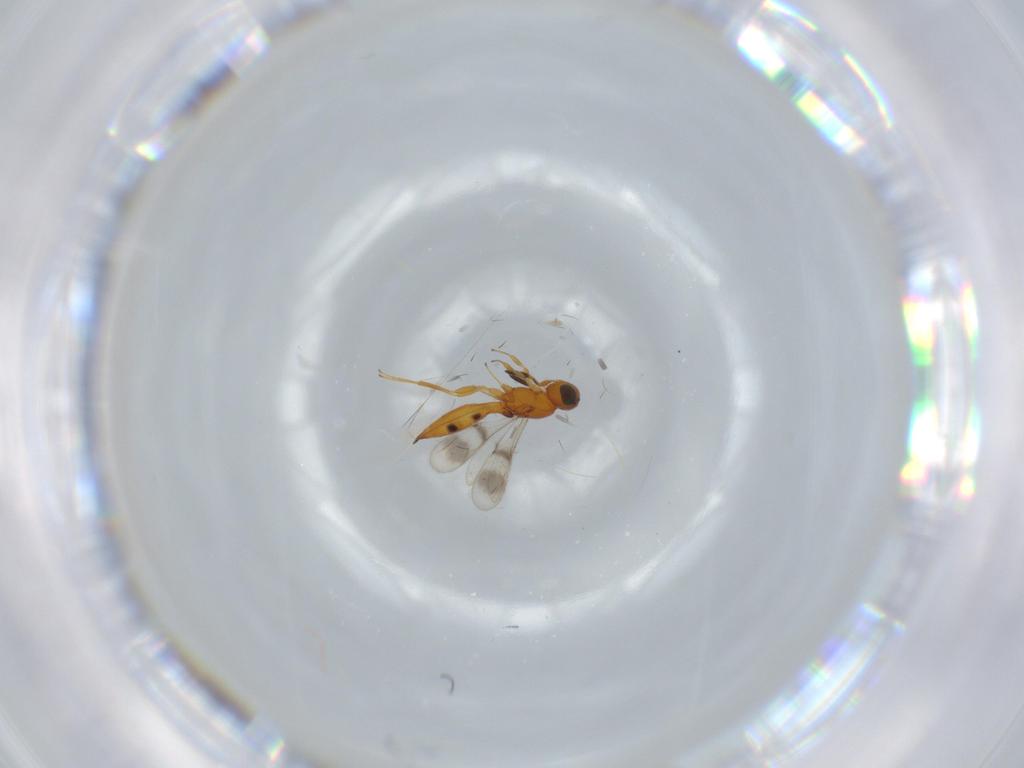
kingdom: Animalia
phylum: Arthropoda
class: Insecta
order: Hymenoptera
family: Scelionidae
